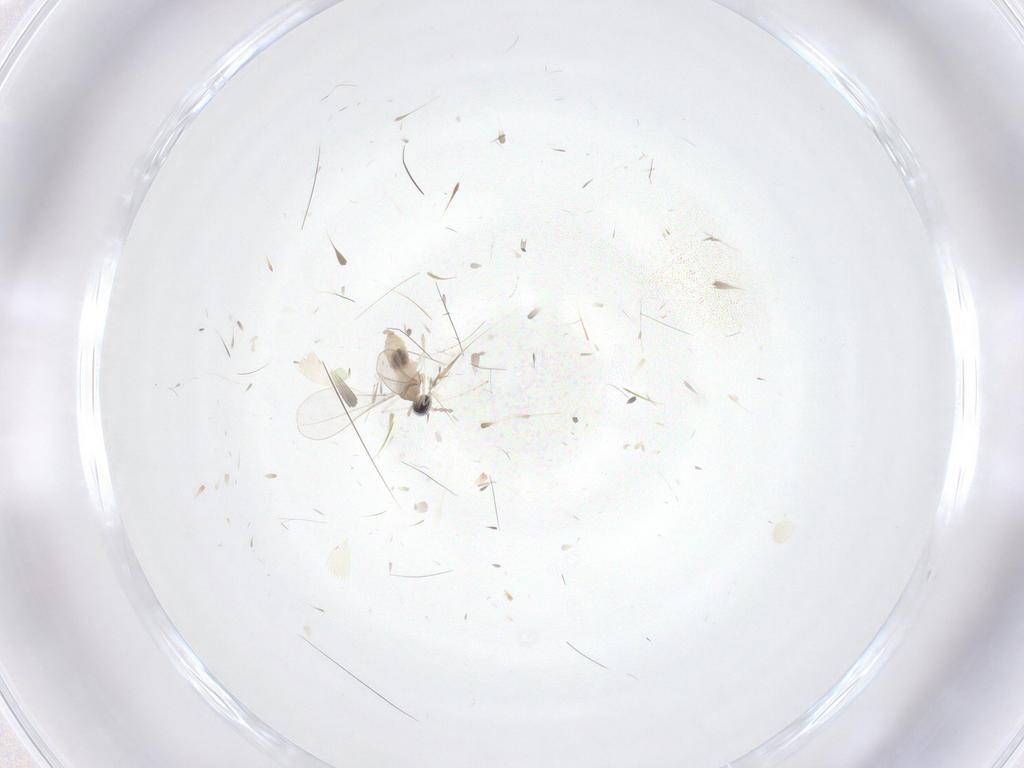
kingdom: Animalia
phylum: Arthropoda
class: Insecta
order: Diptera
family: Cecidomyiidae
